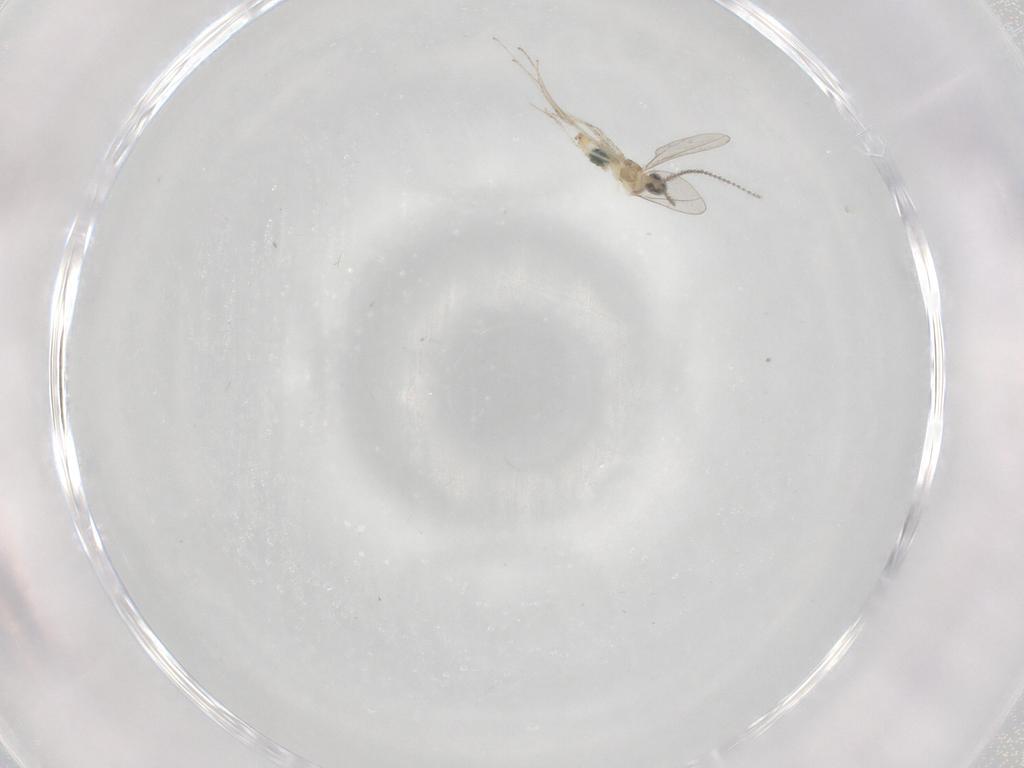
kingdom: Animalia
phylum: Arthropoda
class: Insecta
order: Diptera
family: Cecidomyiidae
